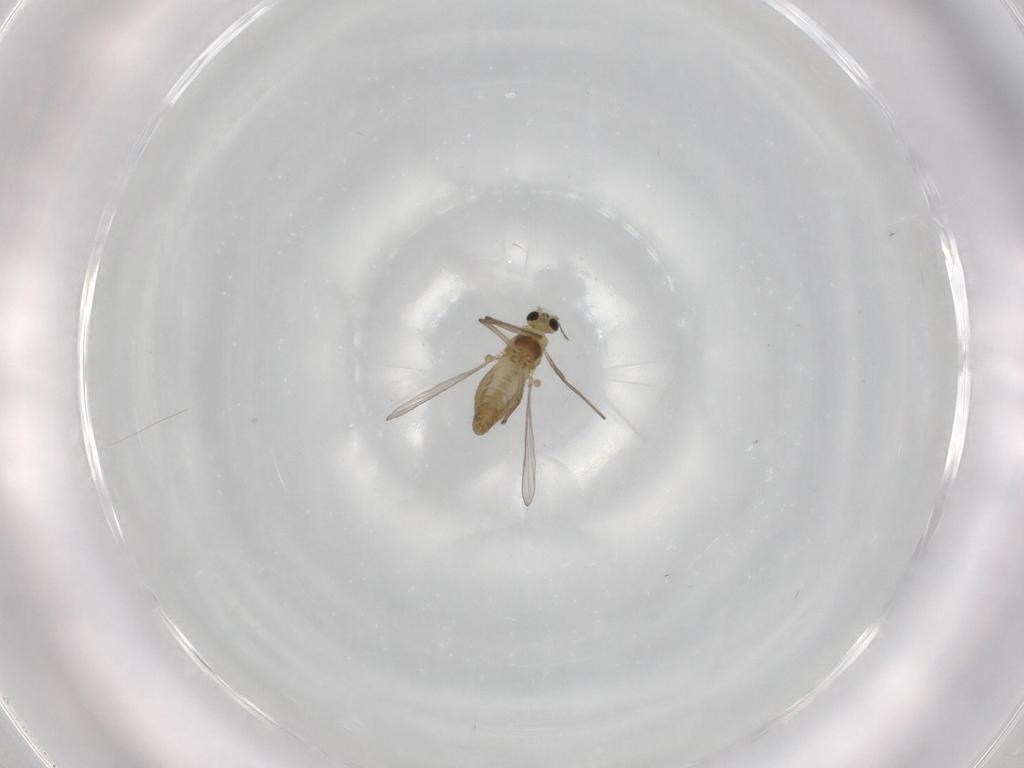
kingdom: Animalia
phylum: Arthropoda
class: Insecta
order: Diptera
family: Chironomidae
